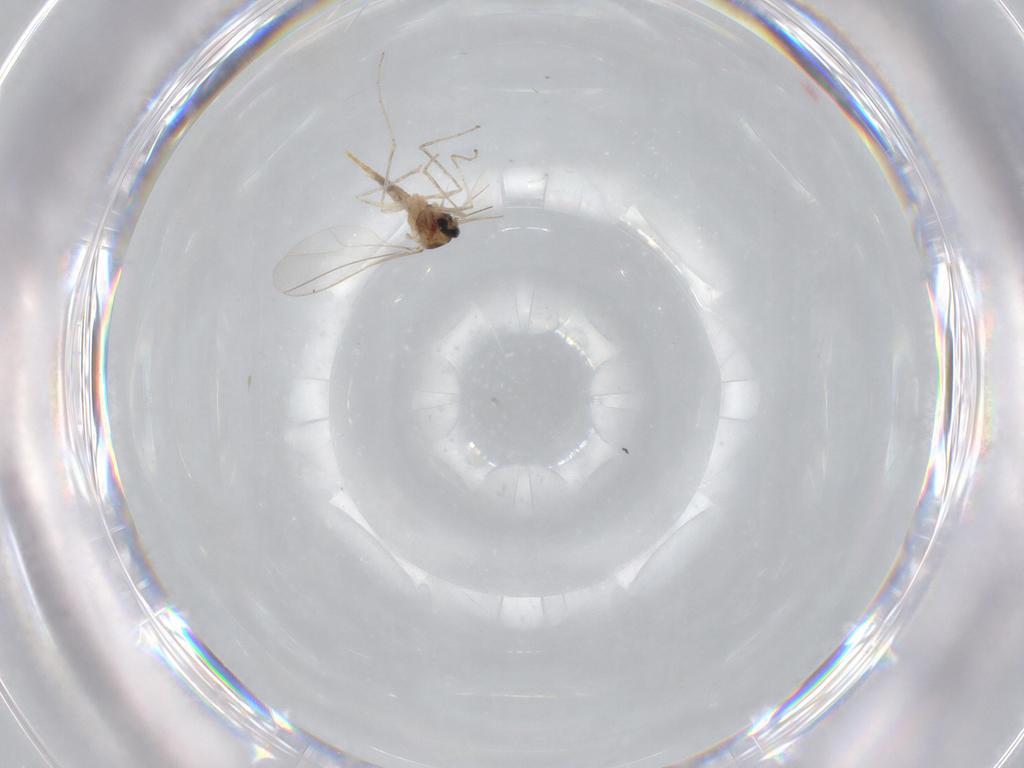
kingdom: Animalia
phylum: Arthropoda
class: Insecta
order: Diptera
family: Cecidomyiidae
